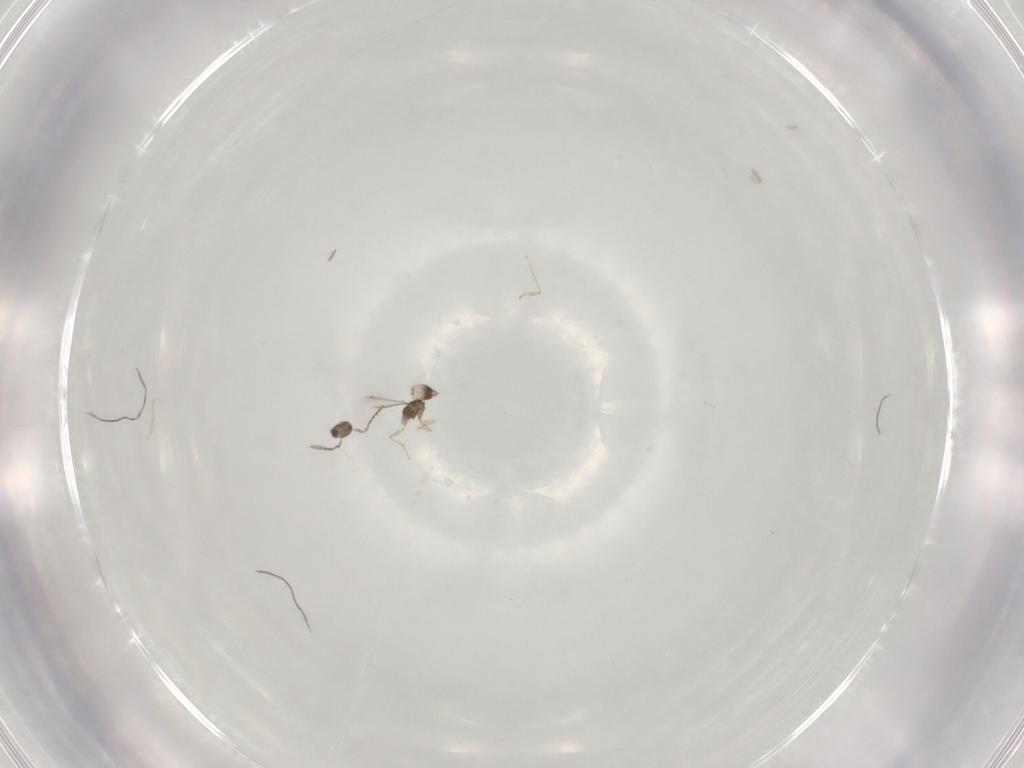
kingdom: Animalia
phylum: Arthropoda
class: Insecta
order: Hymenoptera
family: Mymaridae
